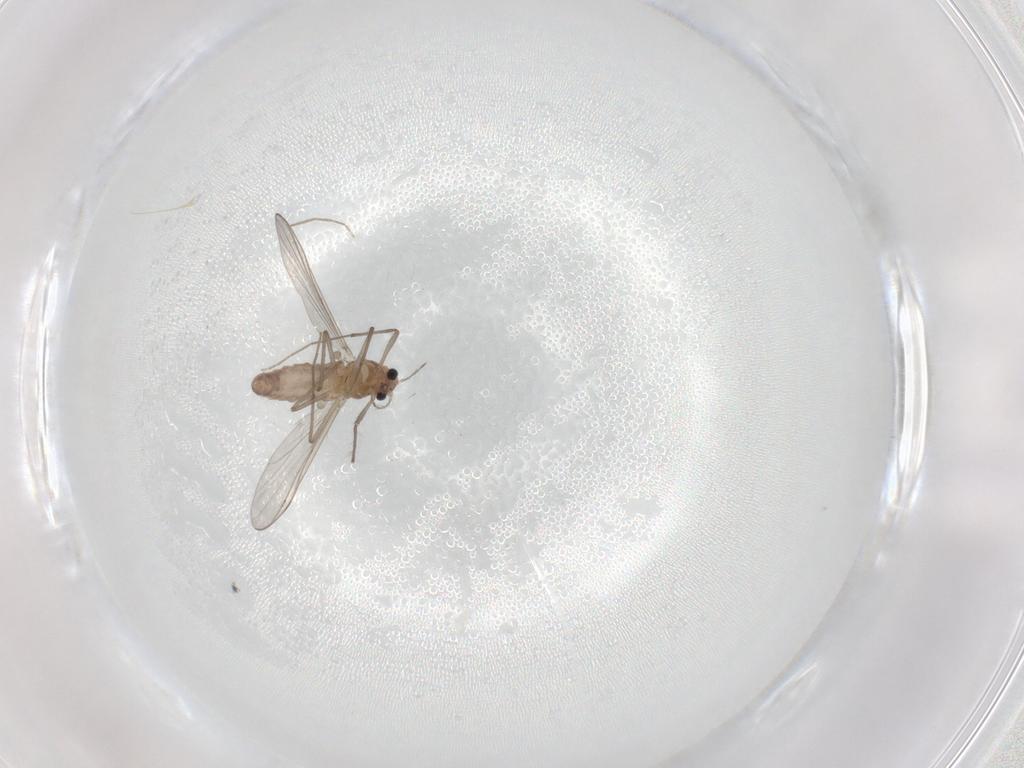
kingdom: Animalia
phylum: Arthropoda
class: Insecta
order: Diptera
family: Chironomidae
